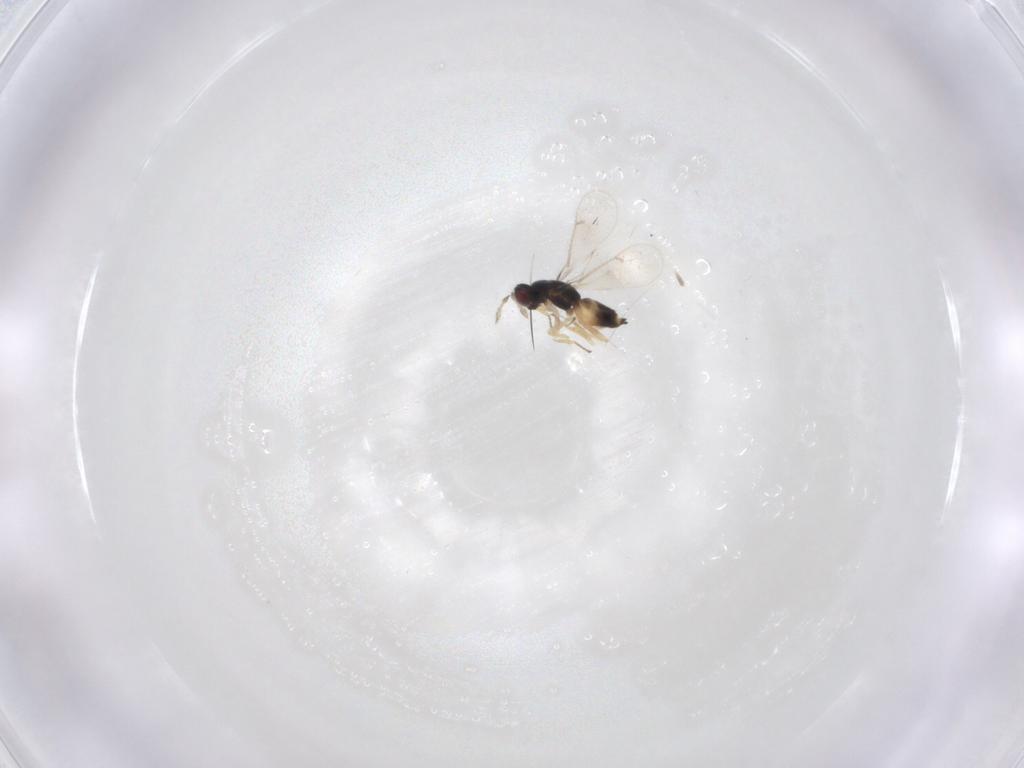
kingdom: Animalia
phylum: Arthropoda
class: Insecta
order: Hymenoptera
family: Eulophidae
